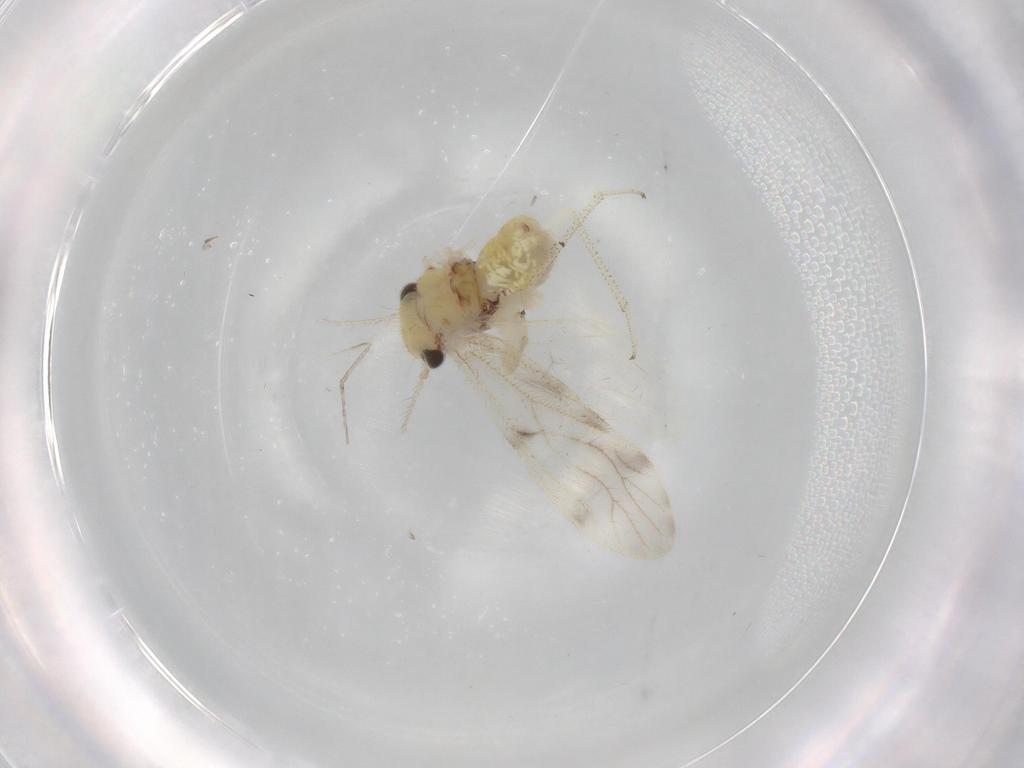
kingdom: Animalia
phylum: Arthropoda
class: Insecta
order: Psocodea
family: Pseudocaeciliidae
